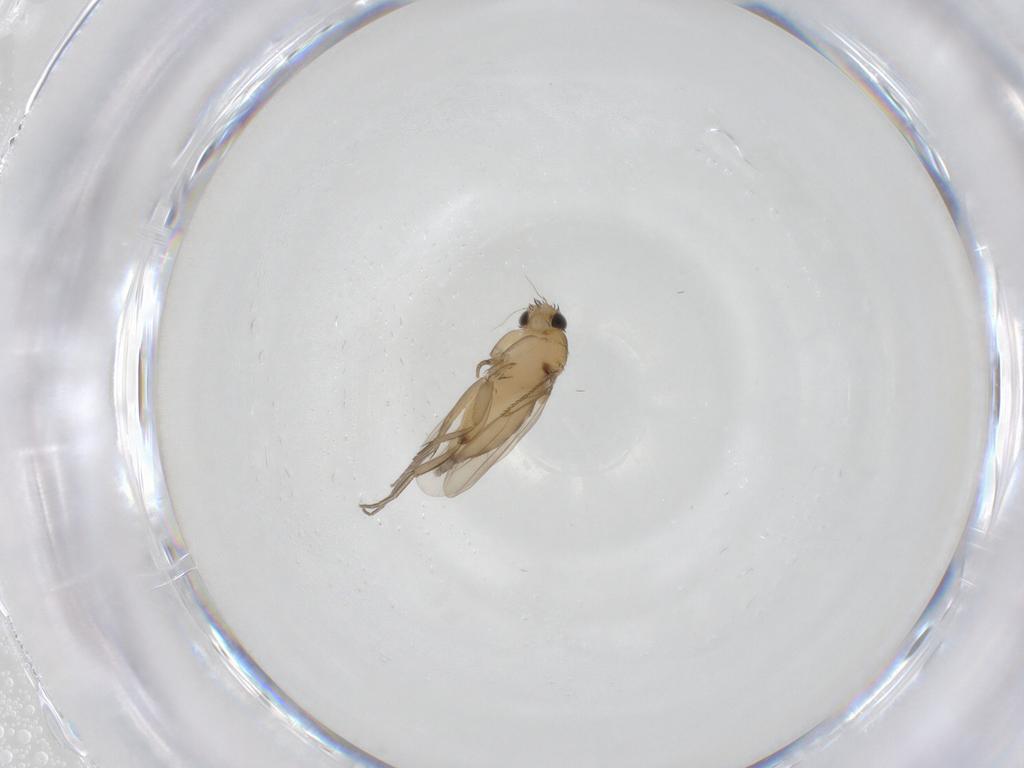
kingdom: Animalia
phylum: Arthropoda
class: Insecta
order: Diptera
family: Phoridae
